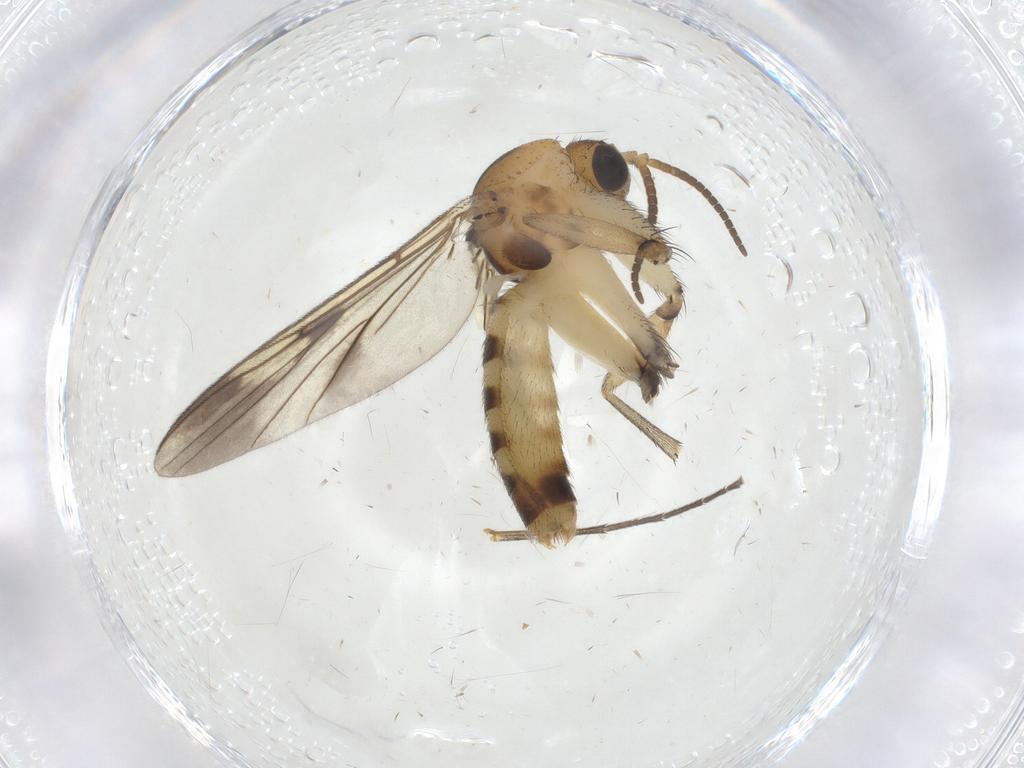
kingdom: Animalia
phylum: Arthropoda
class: Insecta
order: Diptera
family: Mycetophilidae
